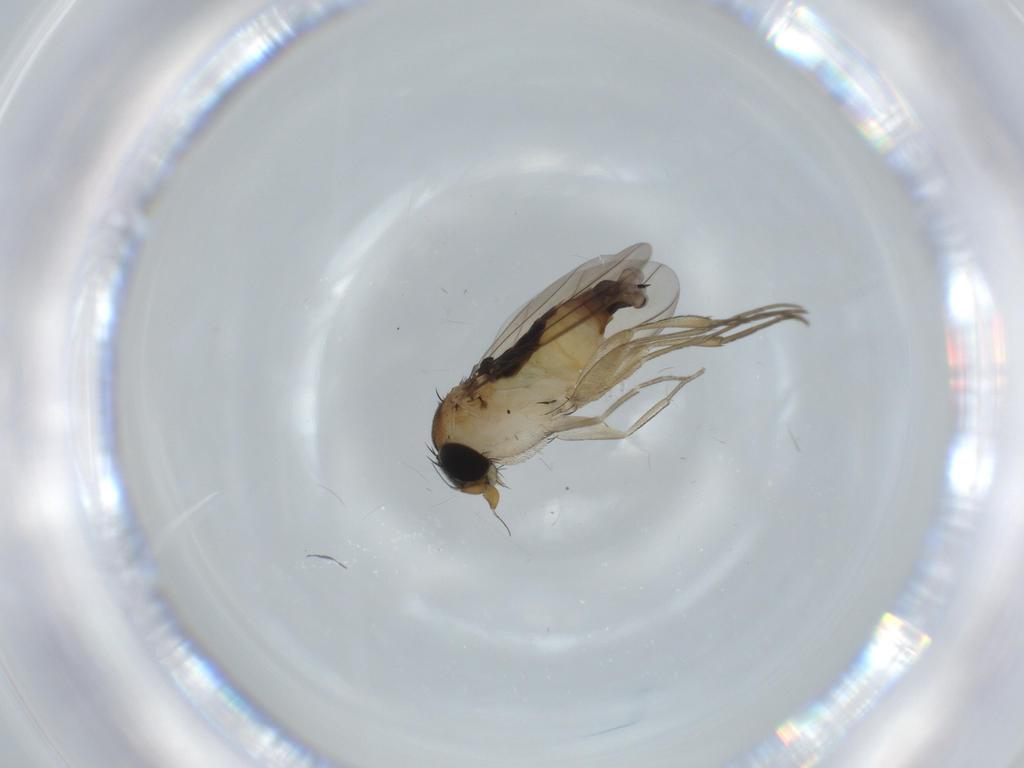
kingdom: Animalia
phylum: Arthropoda
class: Insecta
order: Diptera
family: Phoridae
